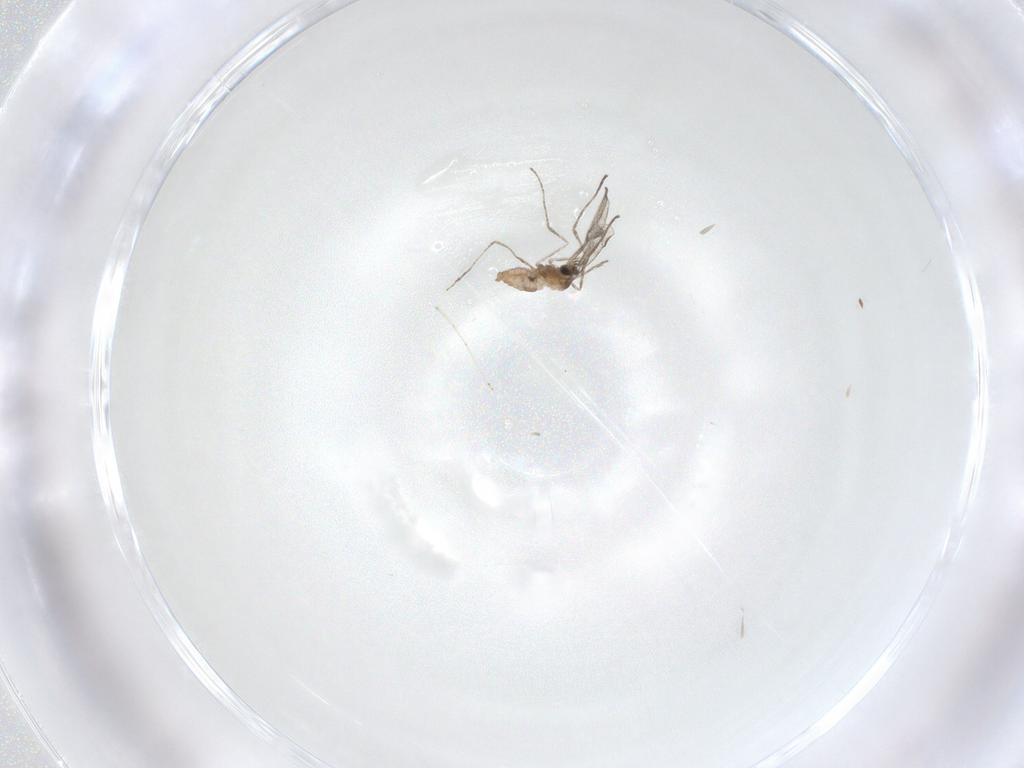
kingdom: Animalia
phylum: Arthropoda
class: Insecta
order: Diptera
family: Cecidomyiidae
